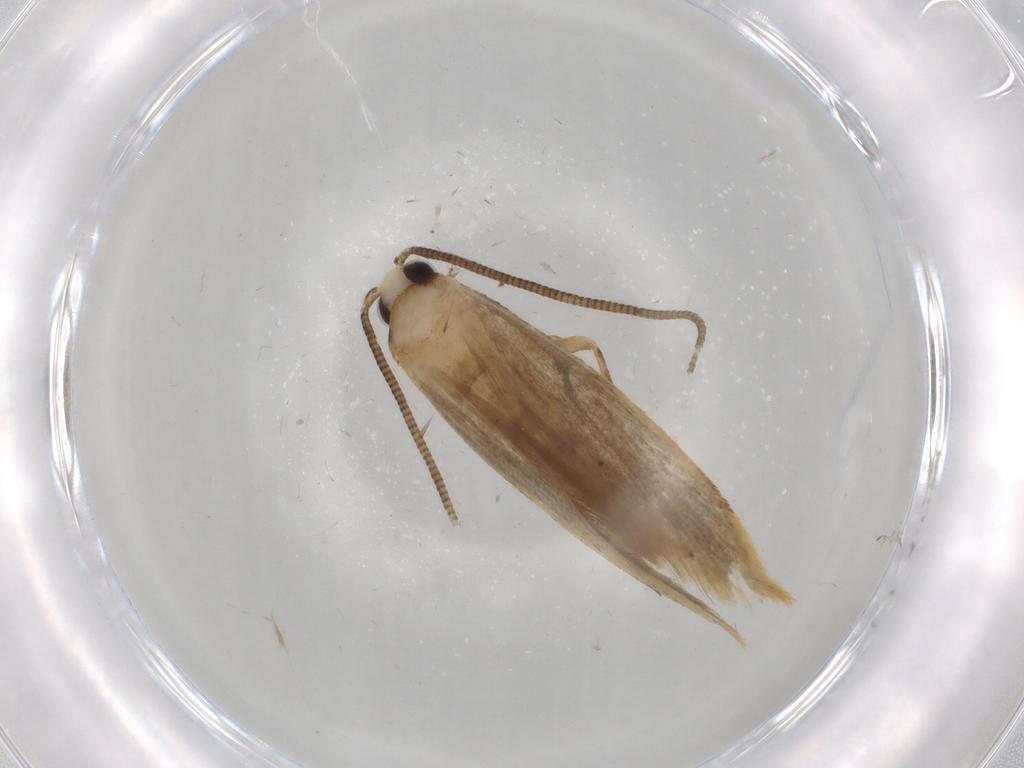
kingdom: Animalia
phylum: Arthropoda
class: Insecta
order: Lepidoptera
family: Tineidae
